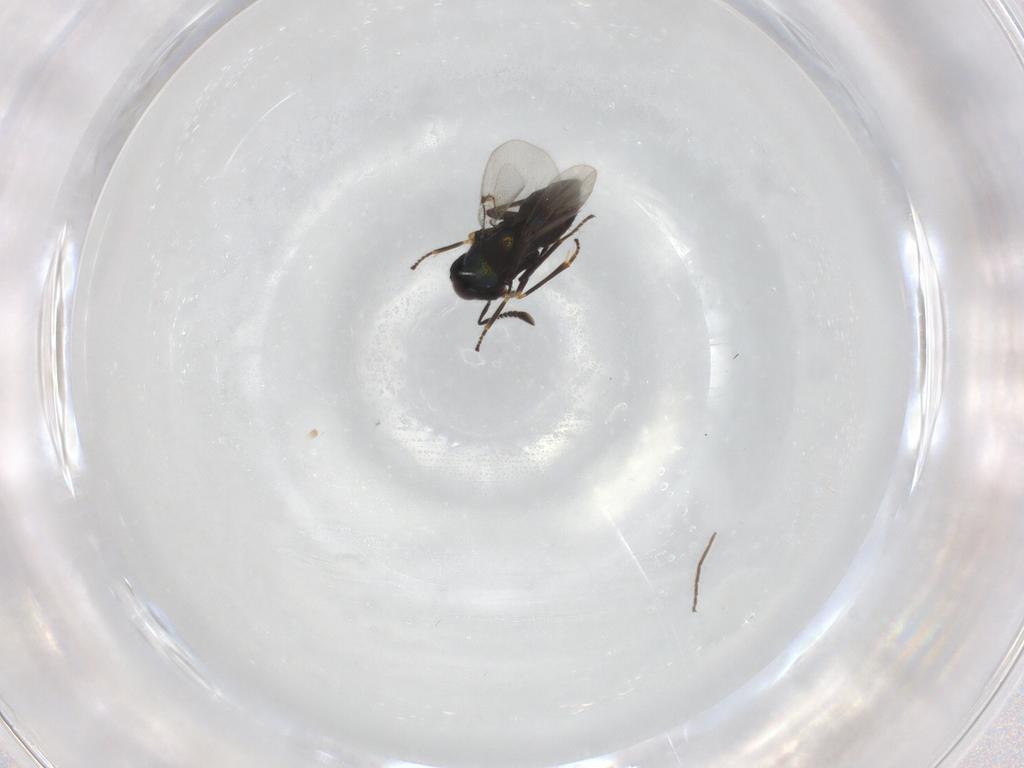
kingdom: Animalia
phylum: Arthropoda
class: Insecta
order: Hymenoptera
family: Encyrtidae
